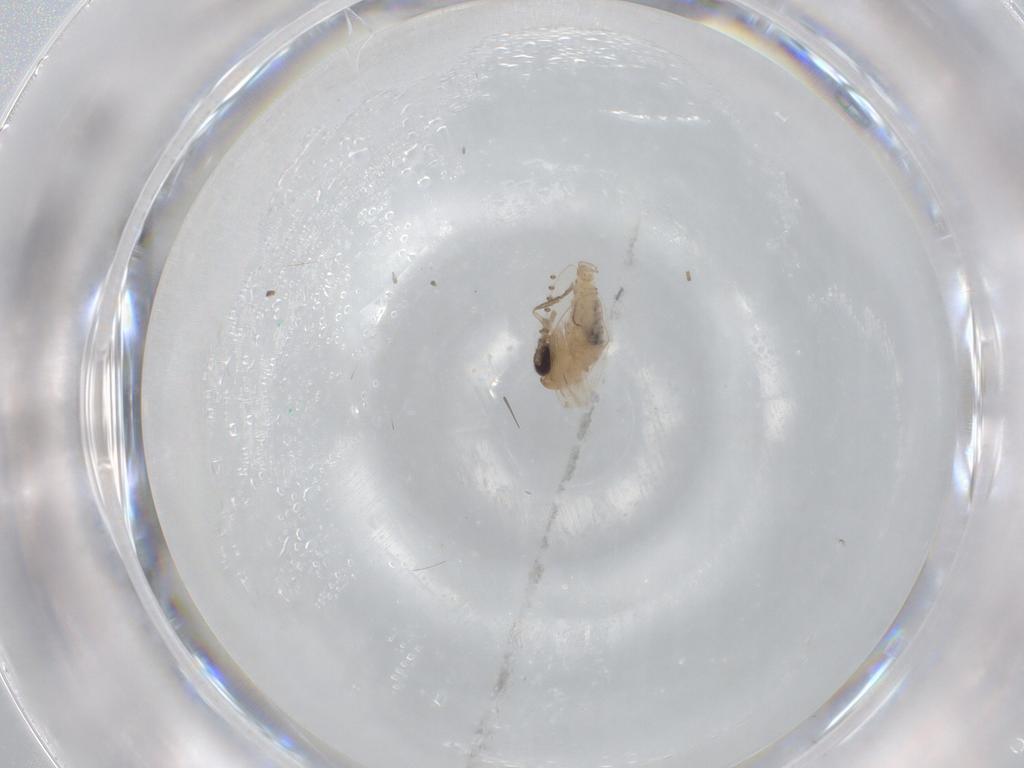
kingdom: Animalia
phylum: Arthropoda
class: Insecta
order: Diptera
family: Psychodidae
